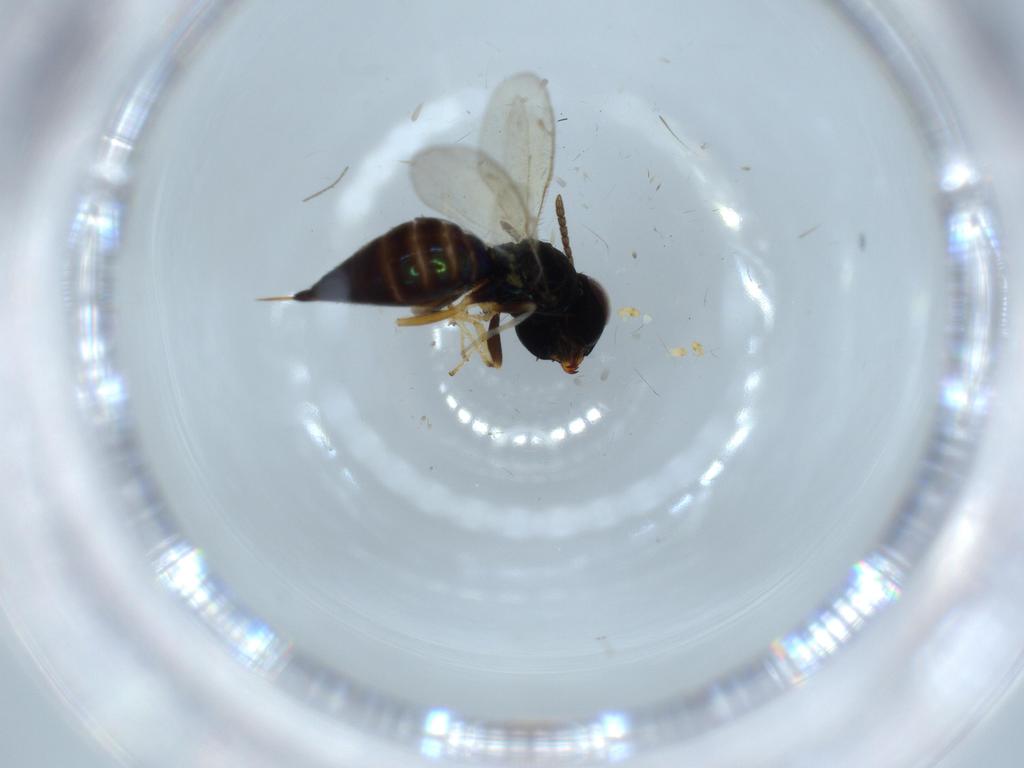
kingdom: Animalia
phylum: Arthropoda
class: Insecta
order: Hymenoptera
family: Pteromalidae
